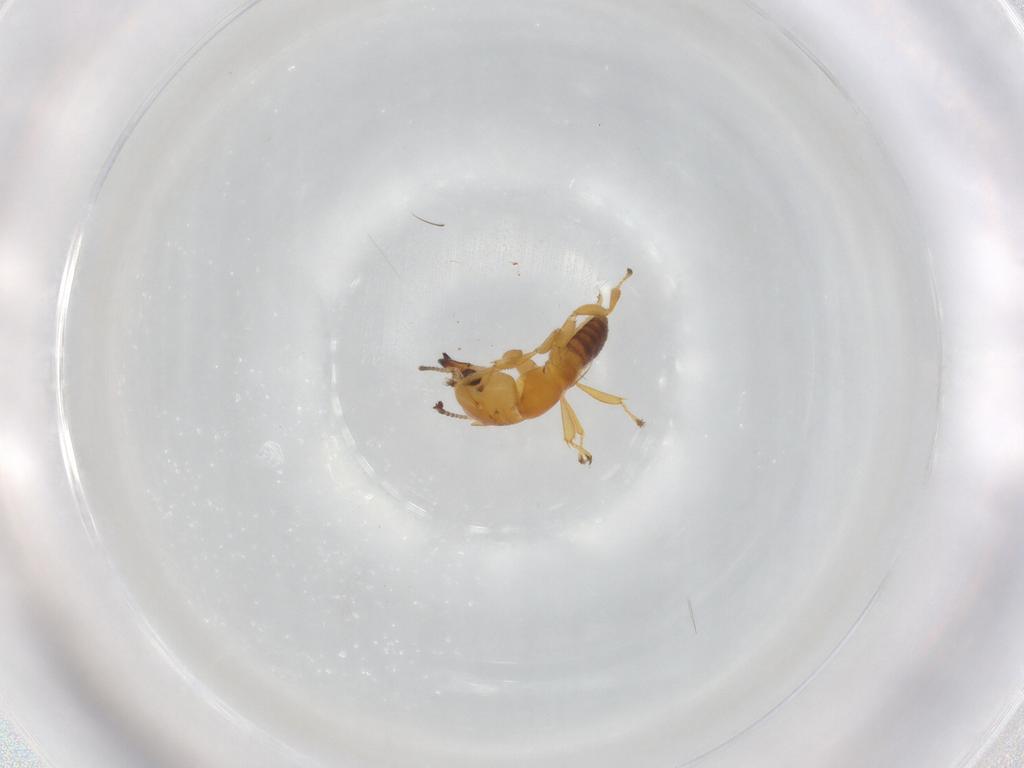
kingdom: Animalia
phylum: Arthropoda
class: Insecta
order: Hymenoptera
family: Pteromalidae
